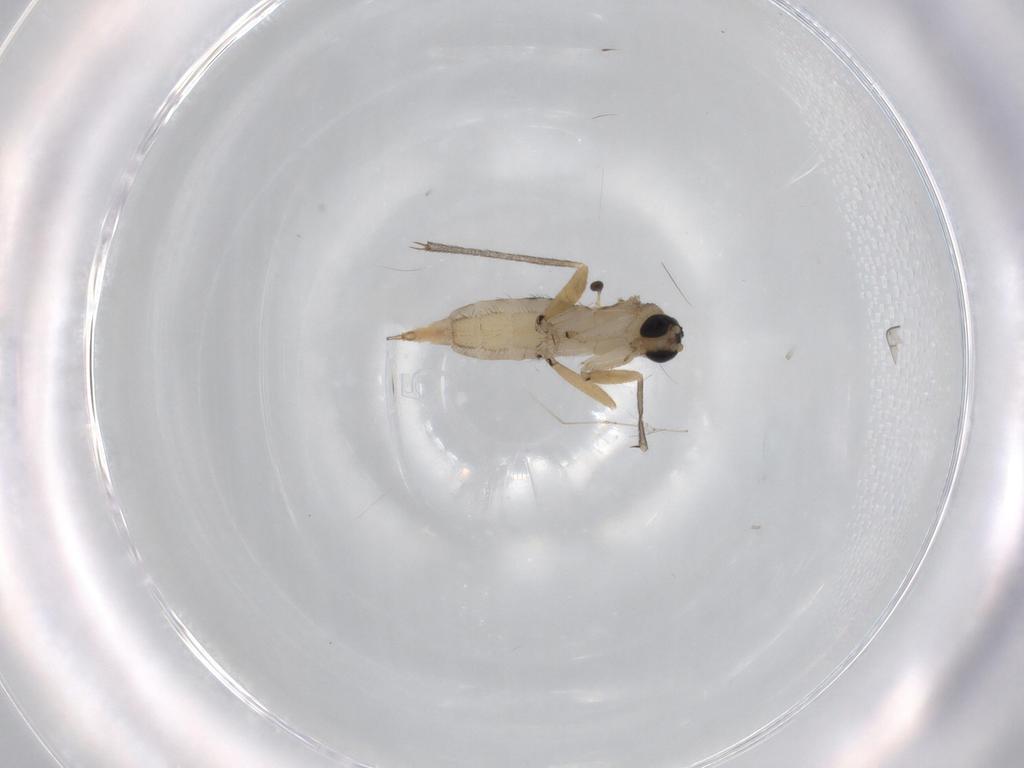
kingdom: Animalia
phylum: Arthropoda
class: Insecta
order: Diptera
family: Sciaridae
